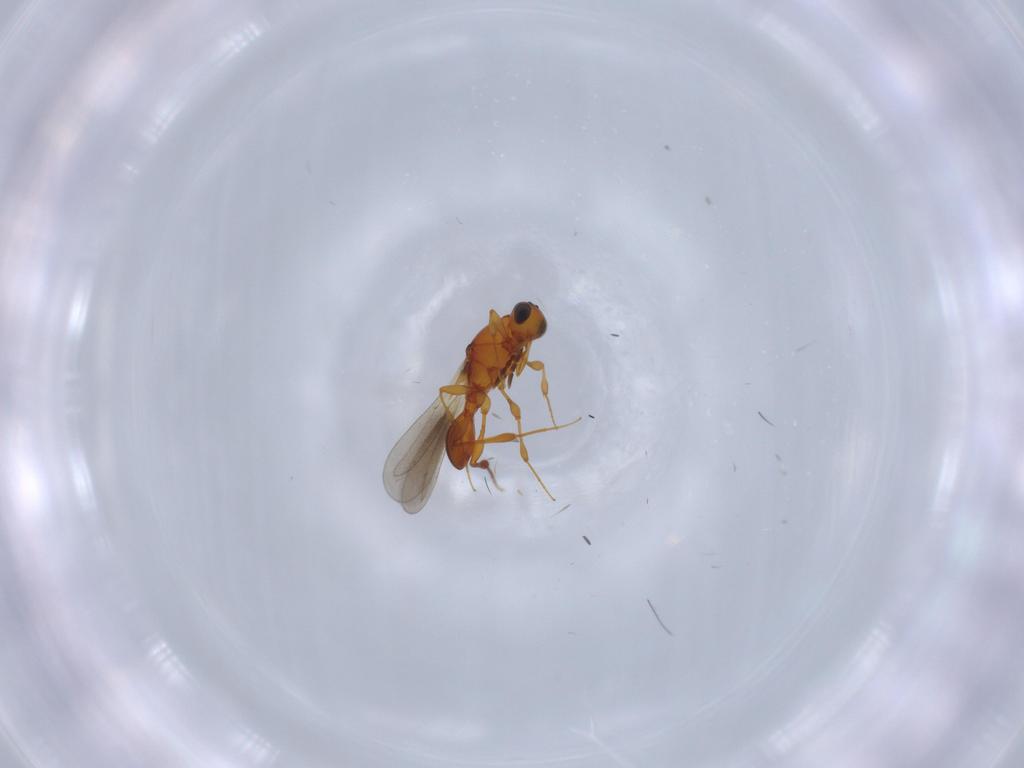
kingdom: Animalia
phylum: Arthropoda
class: Insecta
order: Hymenoptera
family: Platygastridae
